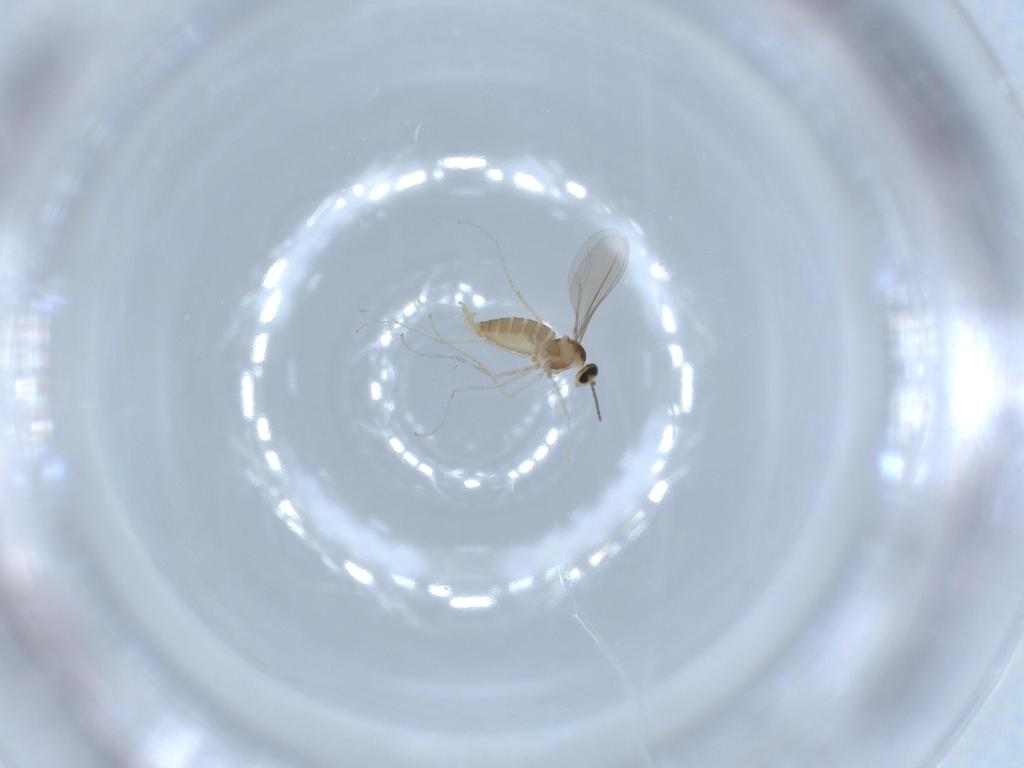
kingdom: Animalia
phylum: Arthropoda
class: Insecta
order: Diptera
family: Cecidomyiidae
